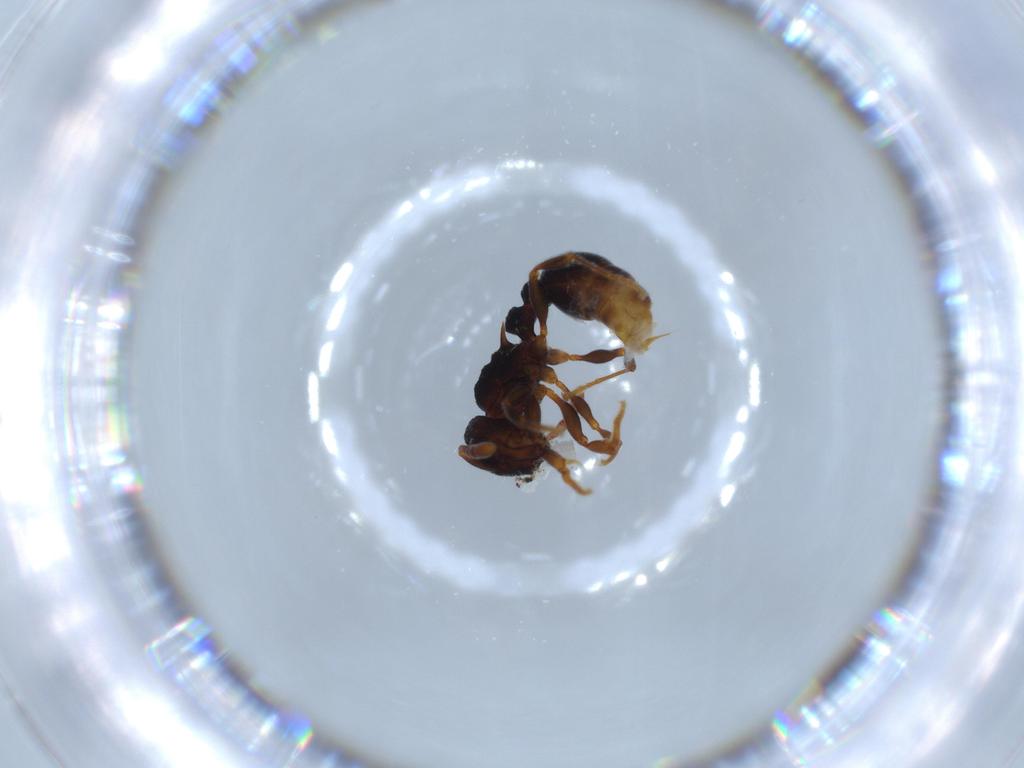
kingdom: Animalia
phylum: Arthropoda
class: Insecta
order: Hymenoptera
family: Formicidae
